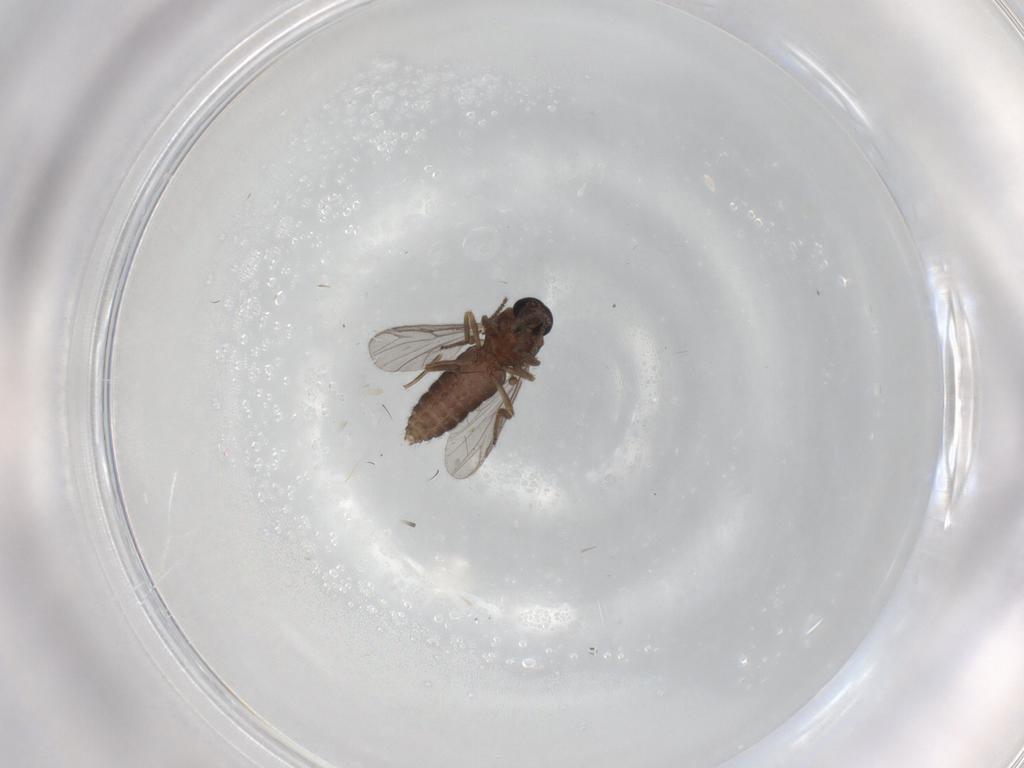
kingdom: Animalia
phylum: Arthropoda
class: Insecta
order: Diptera
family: Ceratopogonidae
